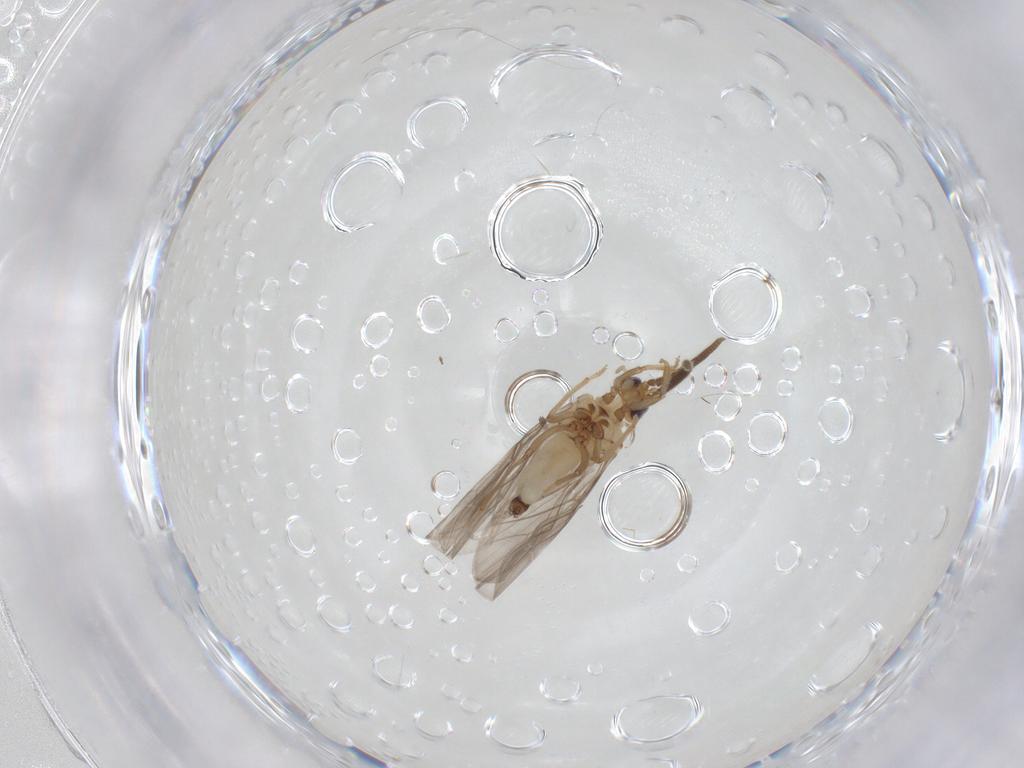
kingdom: Animalia
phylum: Arthropoda
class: Insecta
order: Neuroptera
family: Coniopterygidae
